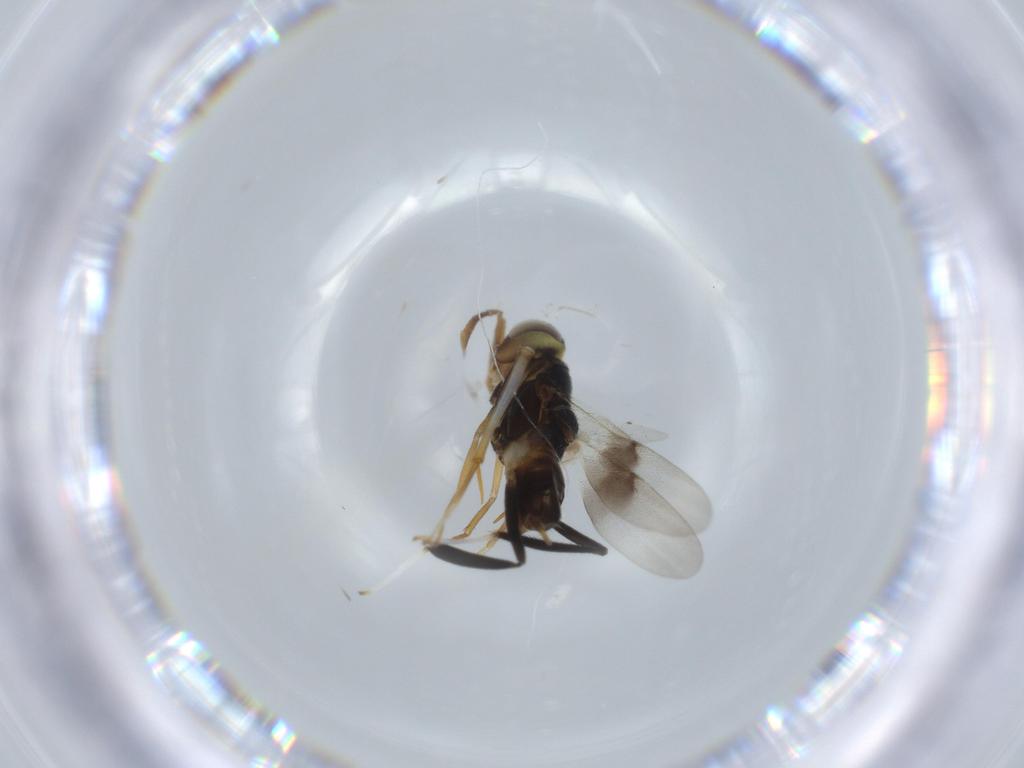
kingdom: Animalia
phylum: Arthropoda
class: Insecta
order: Hymenoptera
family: Encyrtidae
